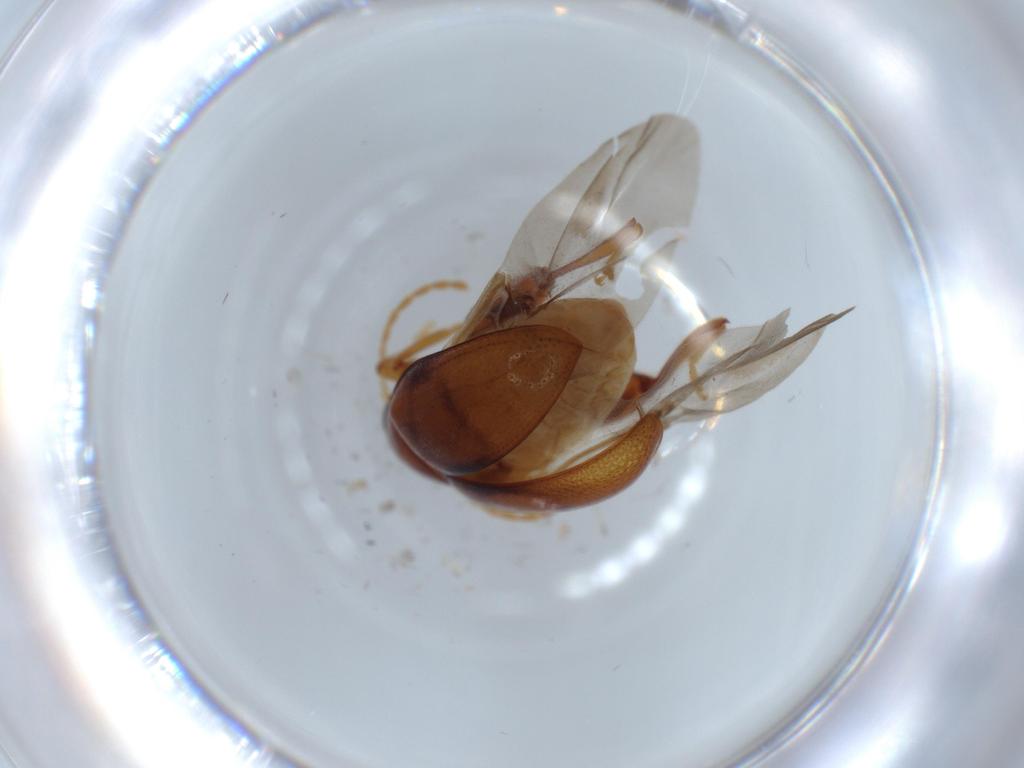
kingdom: Animalia
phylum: Arthropoda
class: Insecta
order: Coleoptera
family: Chrysomelidae
